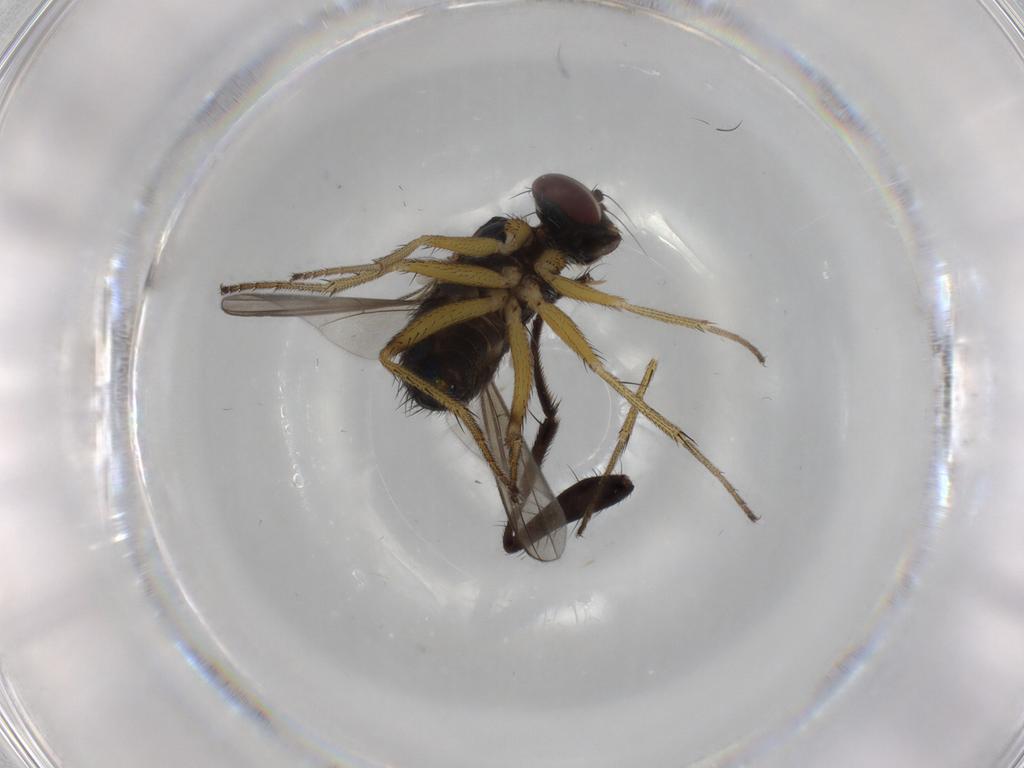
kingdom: Animalia
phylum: Arthropoda
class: Insecta
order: Diptera
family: Dolichopodidae
